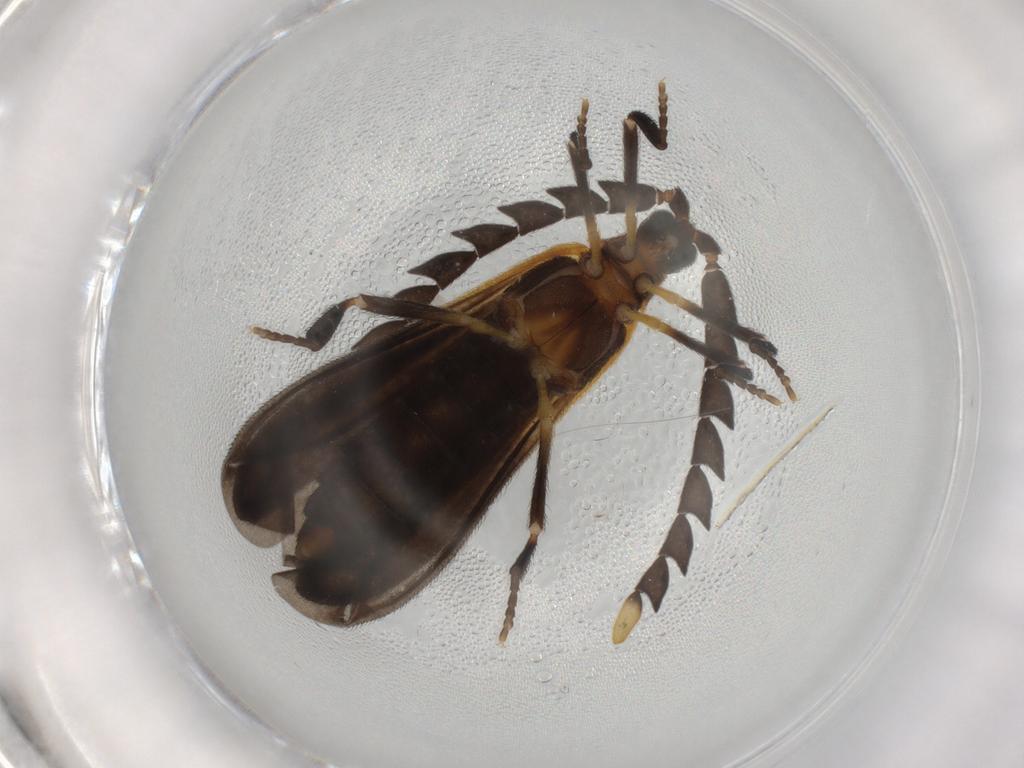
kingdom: Animalia
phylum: Arthropoda
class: Insecta
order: Coleoptera
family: Lycidae
